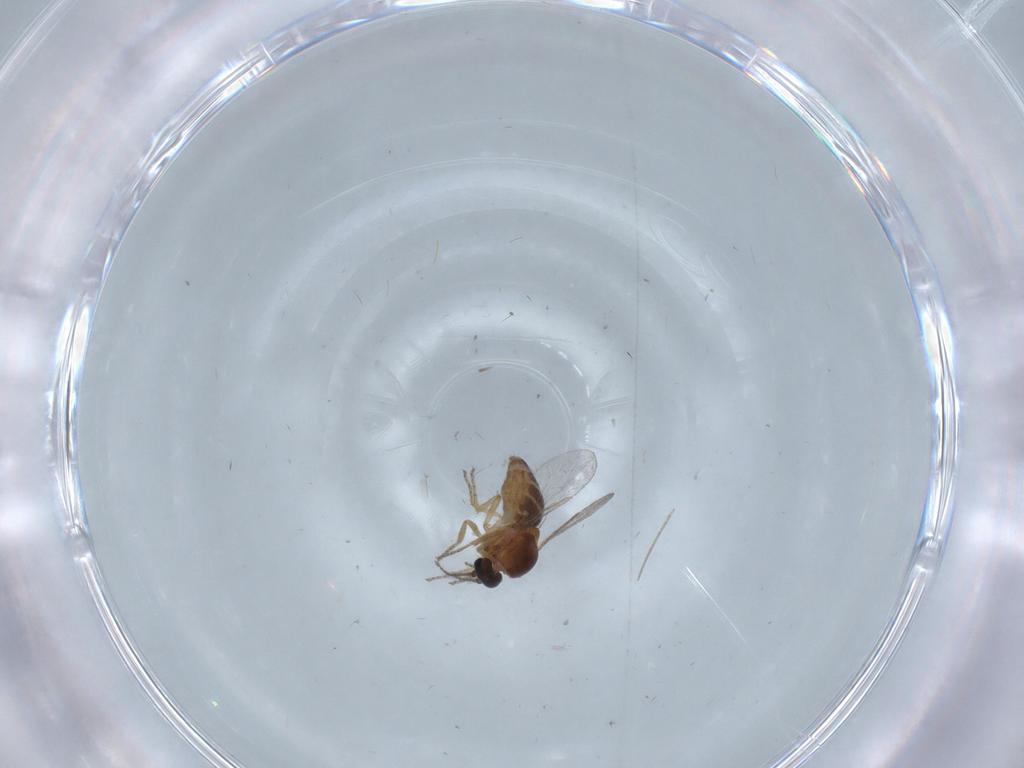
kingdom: Animalia
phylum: Arthropoda
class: Insecta
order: Diptera
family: Ceratopogonidae
